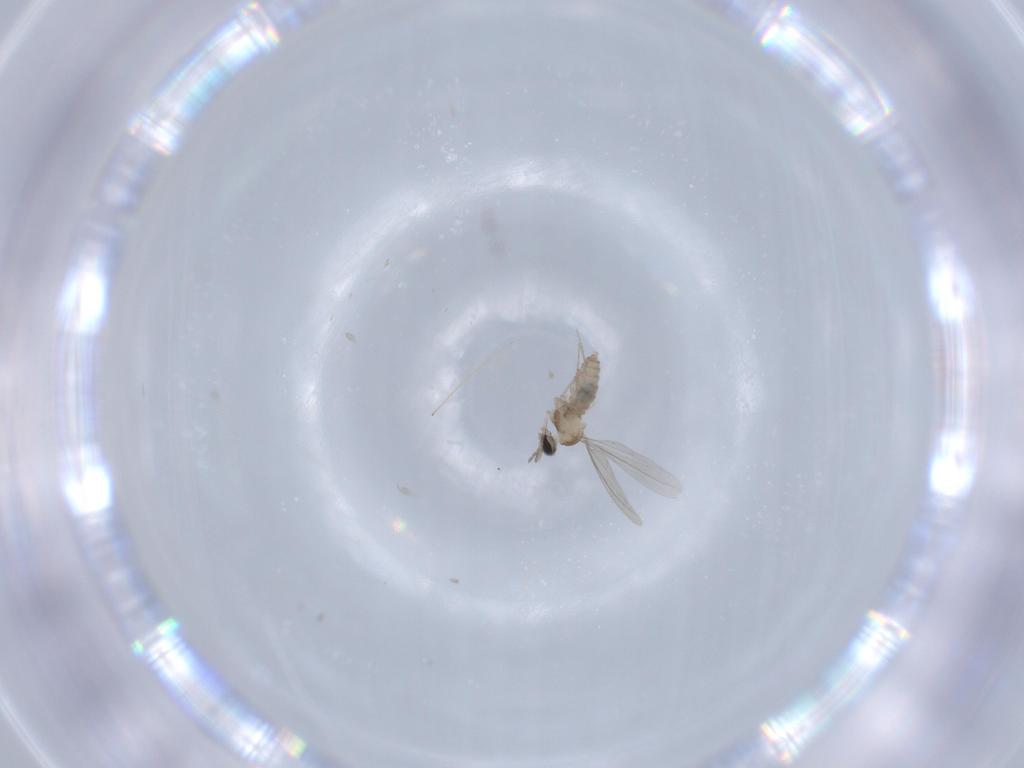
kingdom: Animalia
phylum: Arthropoda
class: Insecta
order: Diptera
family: Cecidomyiidae
